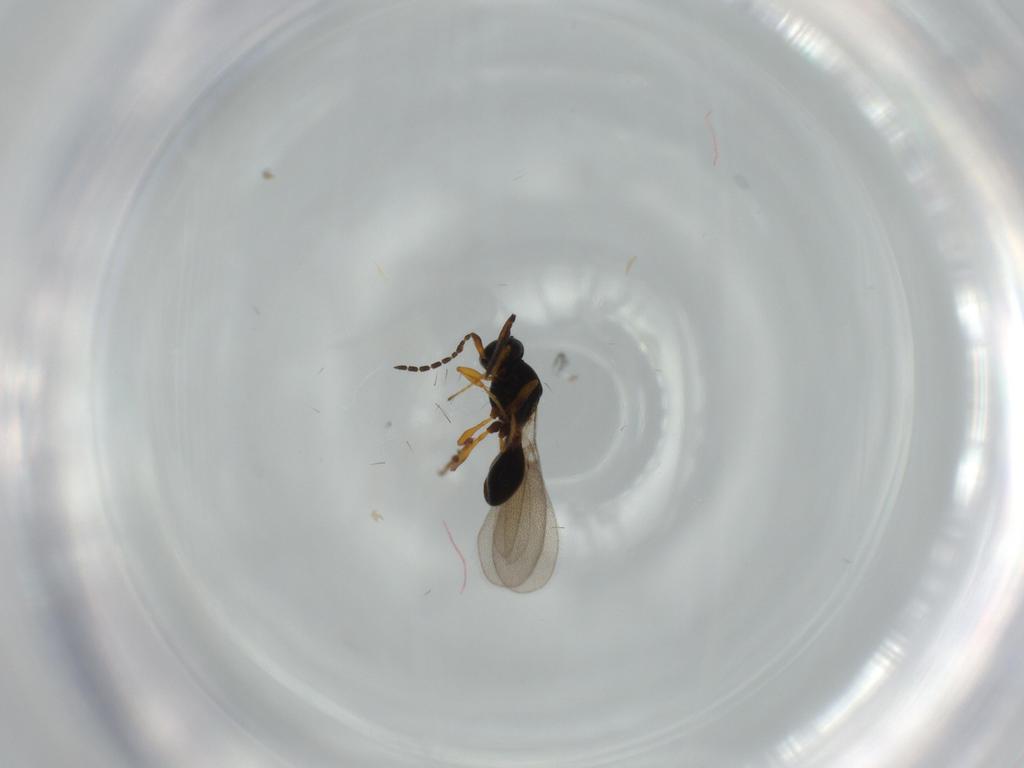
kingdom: Animalia
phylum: Arthropoda
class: Insecta
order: Hymenoptera
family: Platygastridae
